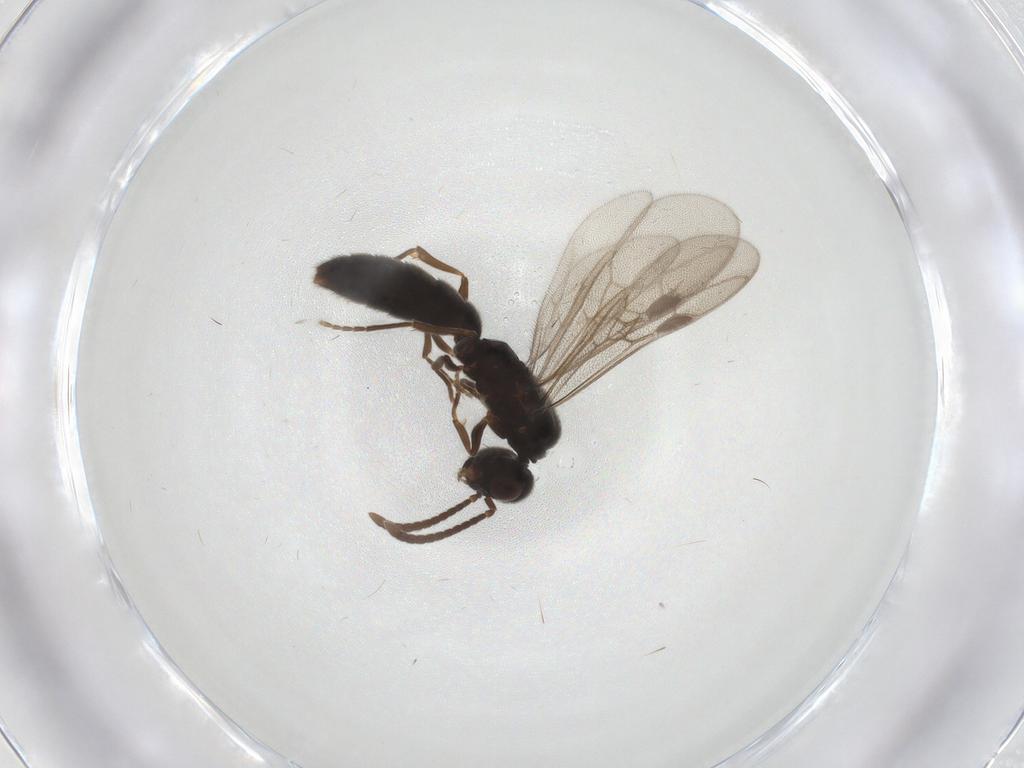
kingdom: Animalia
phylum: Arthropoda
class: Insecta
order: Hymenoptera
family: Formicidae
